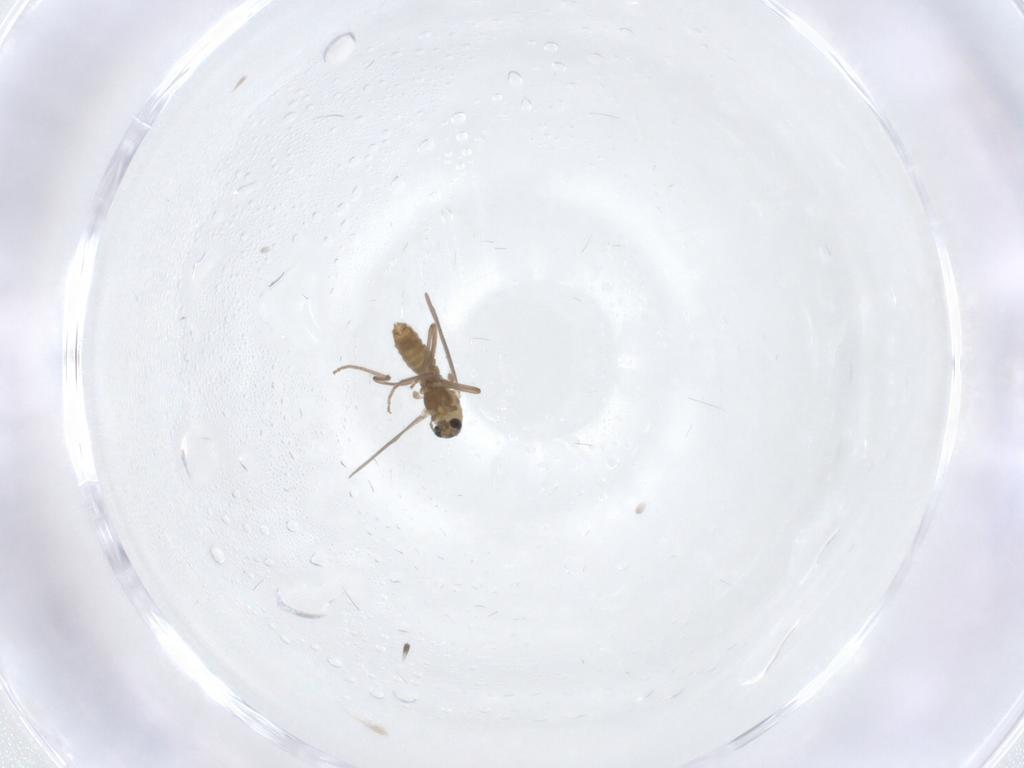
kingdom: Animalia
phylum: Arthropoda
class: Insecta
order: Diptera
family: Chironomidae
